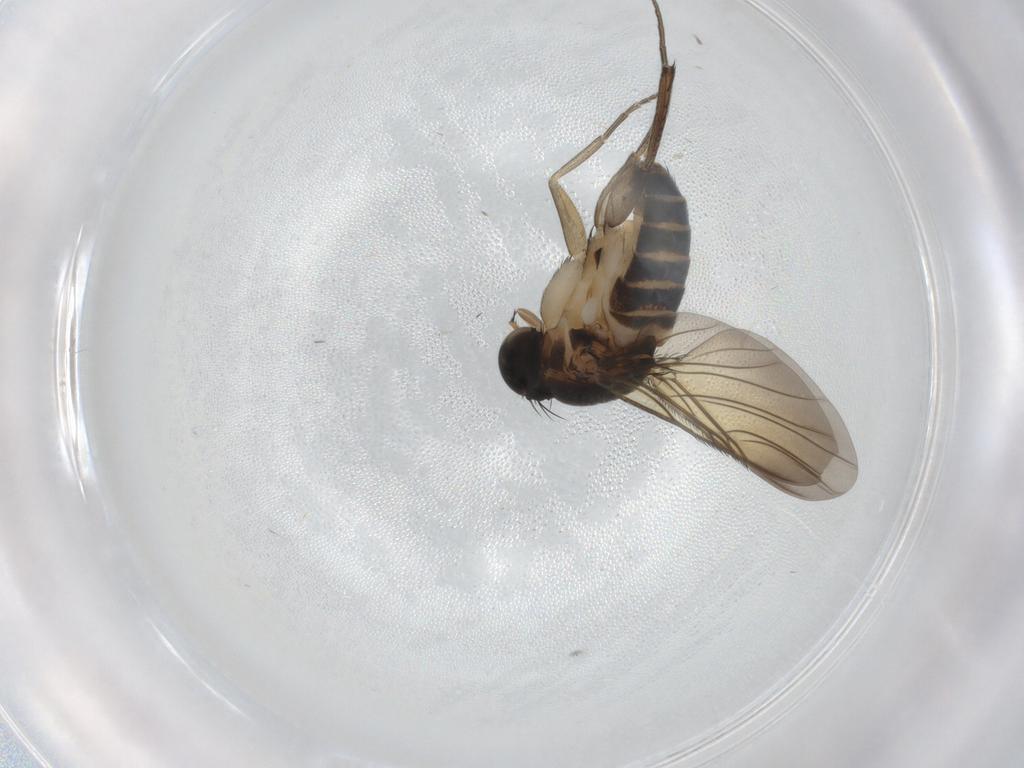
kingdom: Animalia
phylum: Arthropoda
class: Insecta
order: Diptera
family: Phoridae
